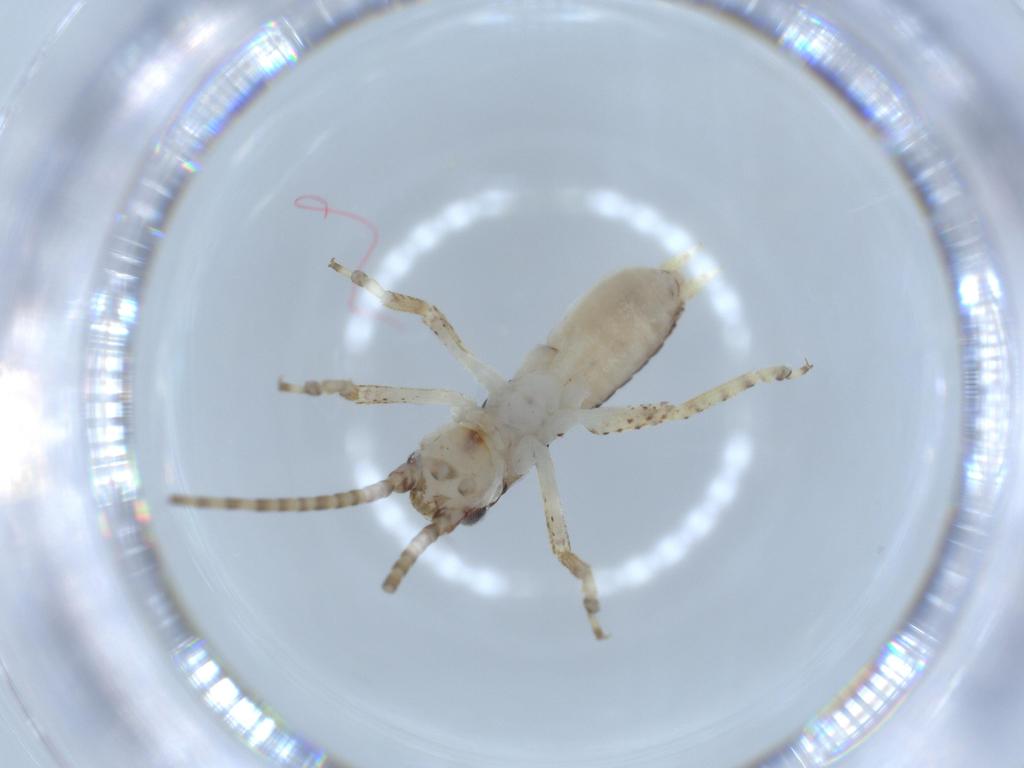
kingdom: Animalia
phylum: Arthropoda
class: Insecta
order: Orthoptera
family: Gryllidae
